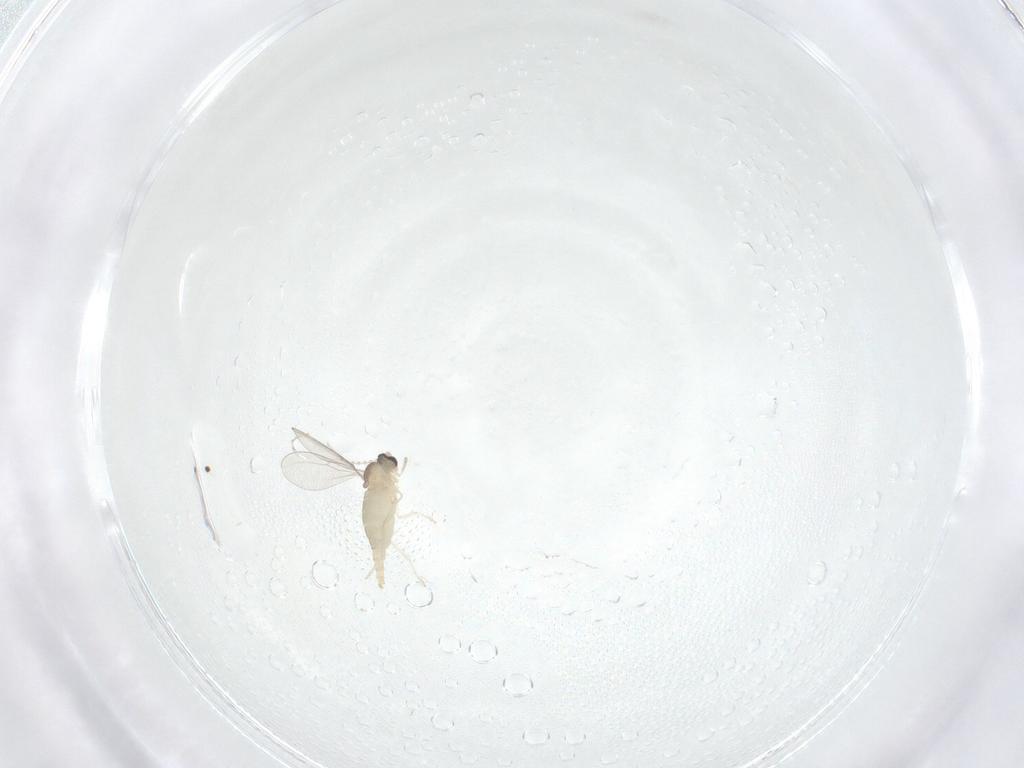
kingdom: Animalia
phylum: Arthropoda
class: Insecta
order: Diptera
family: Cecidomyiidae
